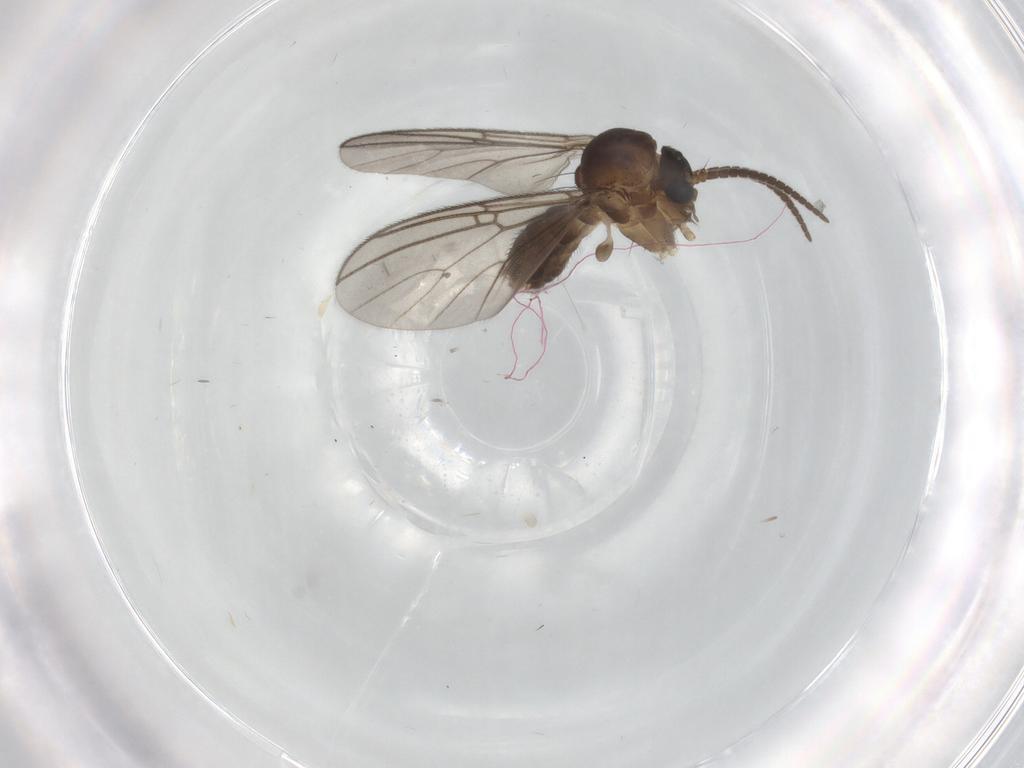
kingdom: Animalia
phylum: Arthropoda
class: Insecta
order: Diptera
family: Mycetophilidae
